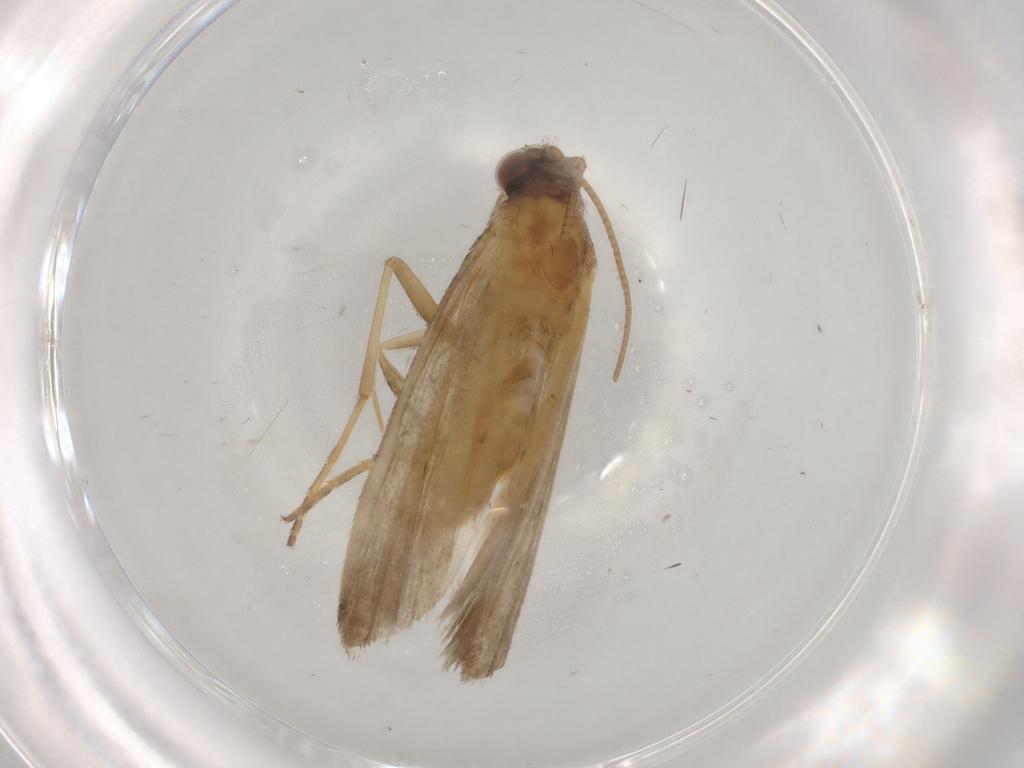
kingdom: Animalia
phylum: Arthropoda
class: Insecta
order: Lepidoptera
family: Noctuidae
